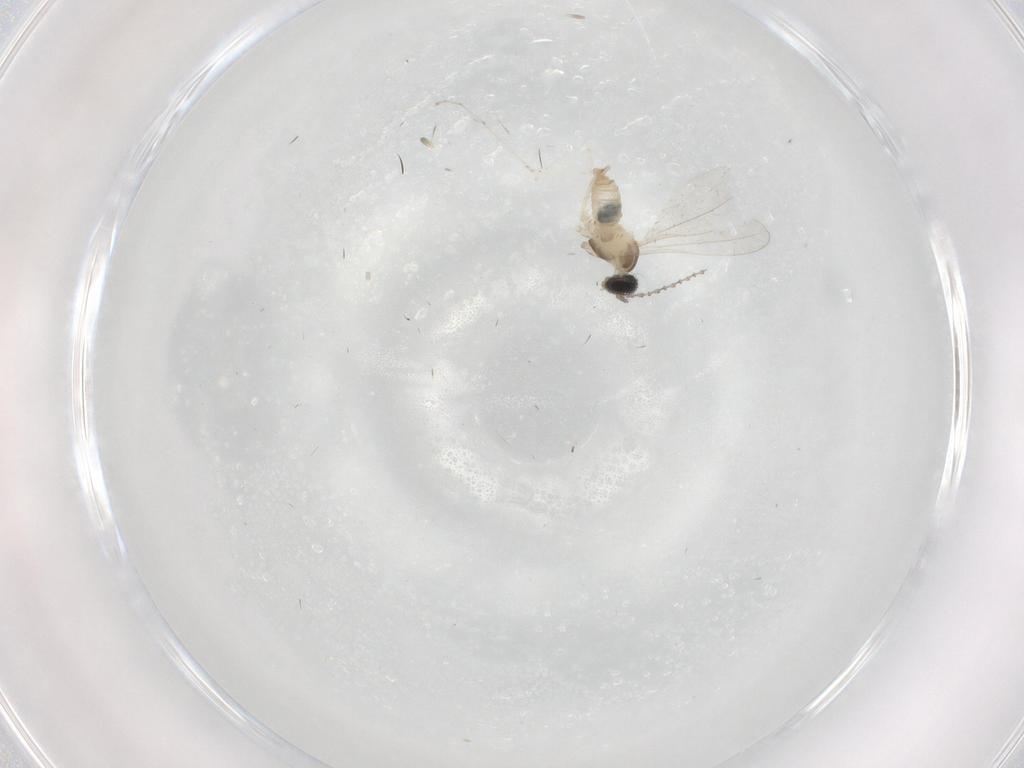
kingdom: Animalia
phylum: Arthropoda
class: Insecta
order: Diptera
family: Cecidomyiidae
